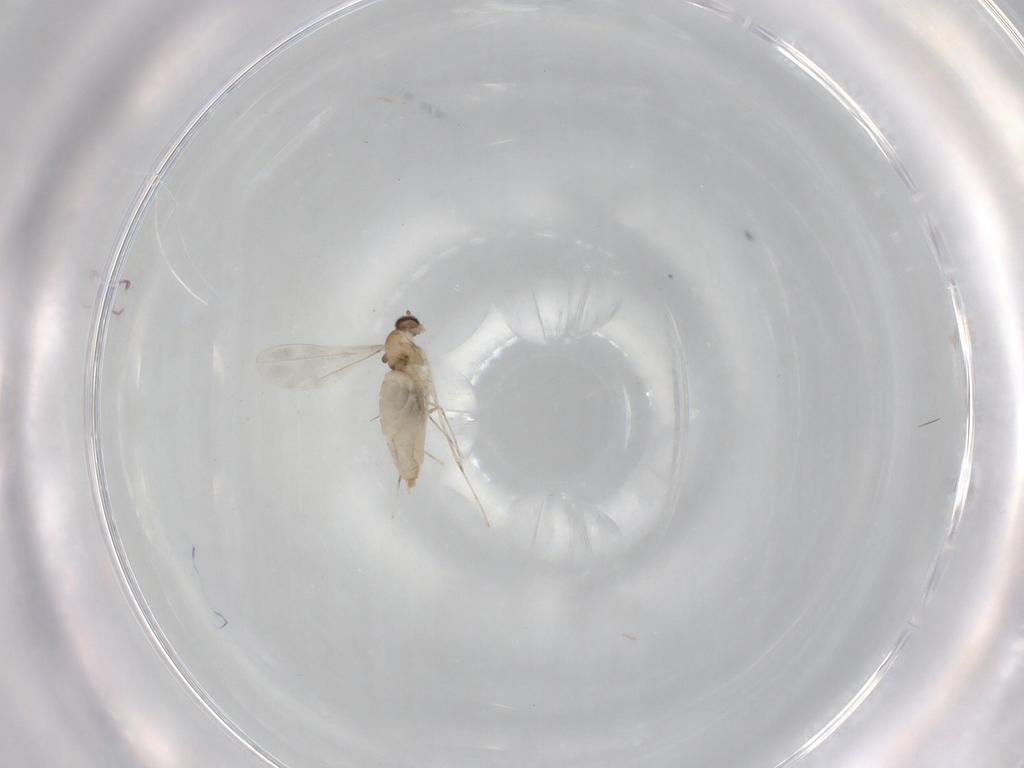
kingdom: Animalia
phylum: Arthropoda
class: Insecta
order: Diptera
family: Cecidomyiidae
